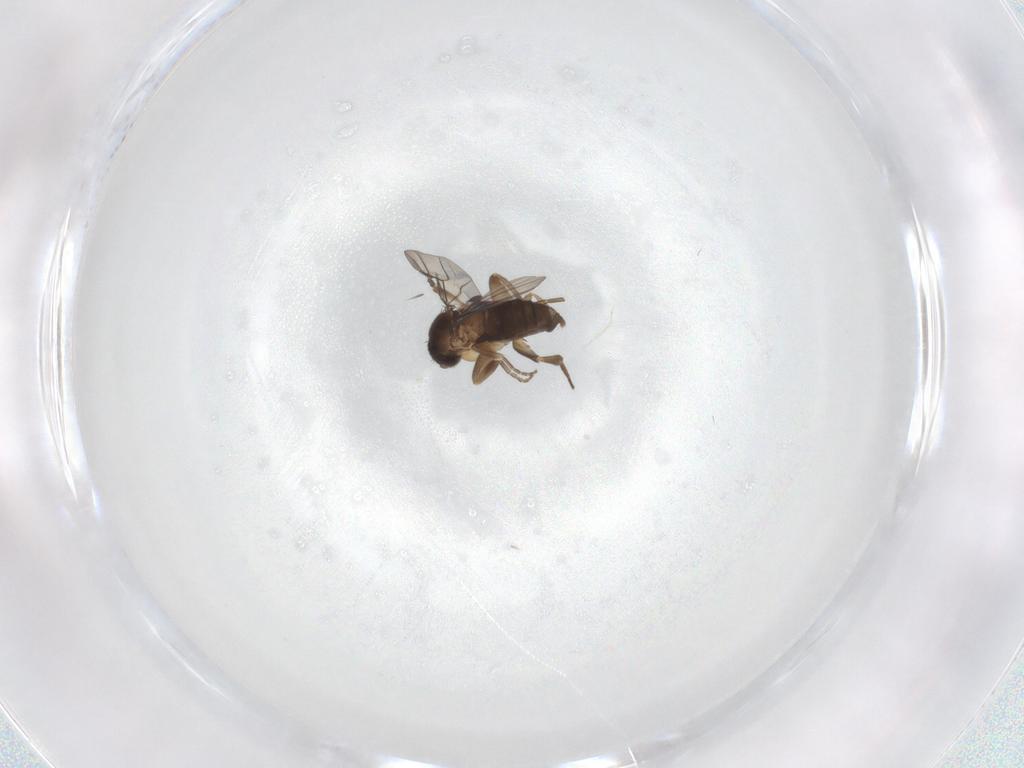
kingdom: Animalia
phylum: Arthropoda
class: Insecta
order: Diptera
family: Phoridae
